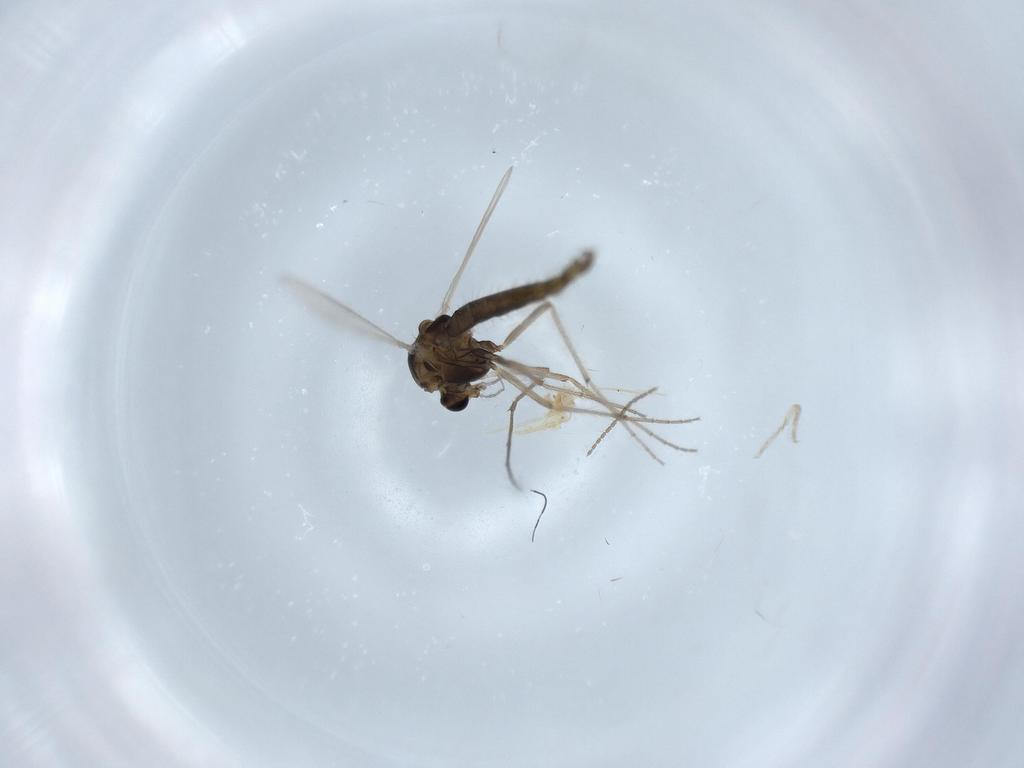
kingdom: Animalia
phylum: Arthropoda
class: Insecta
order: Diptera
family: Chironomidae
